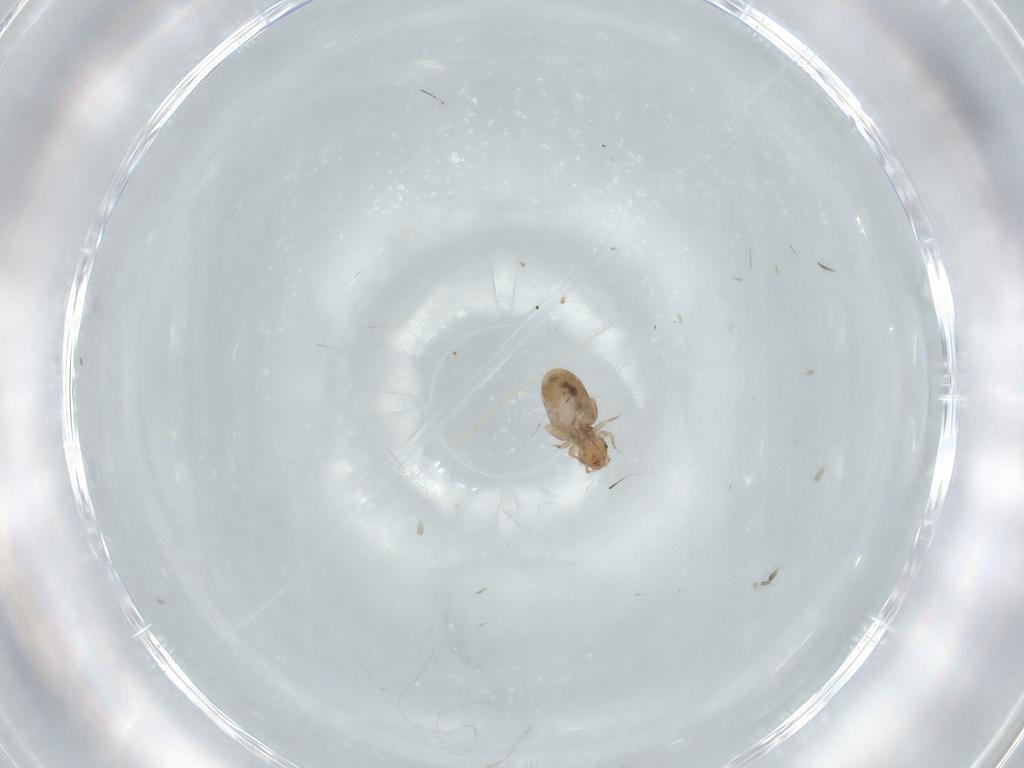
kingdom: Animalia
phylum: Arthropoda
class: Insecta
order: Psocodea
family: Liposcelididae
